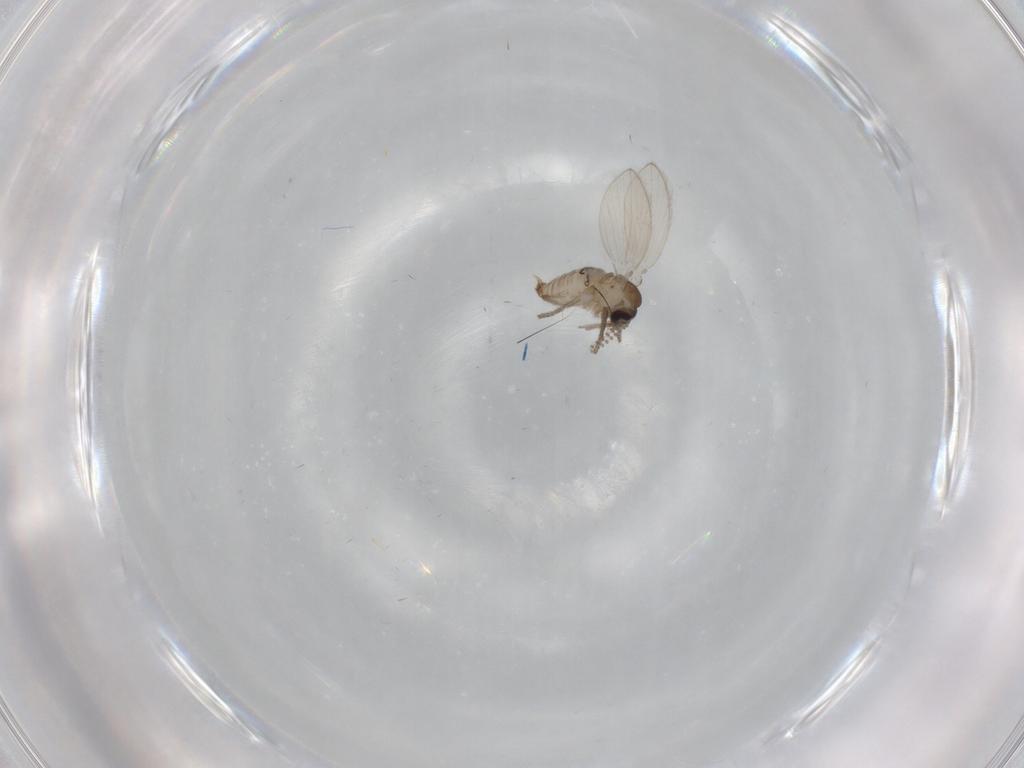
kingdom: Animalia
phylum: Arthropoda
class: Insecta
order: Diptera
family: Psychodidae
